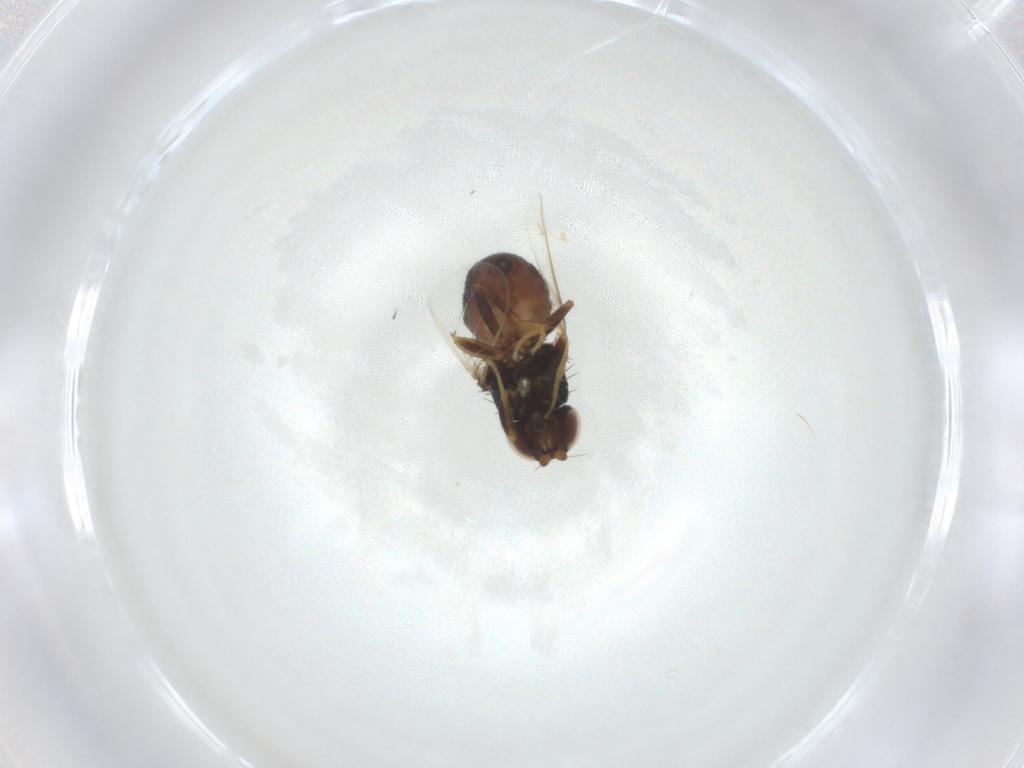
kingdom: Animalia
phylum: Arthropoda
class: Insecta
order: Diptera
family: Chloropidae
